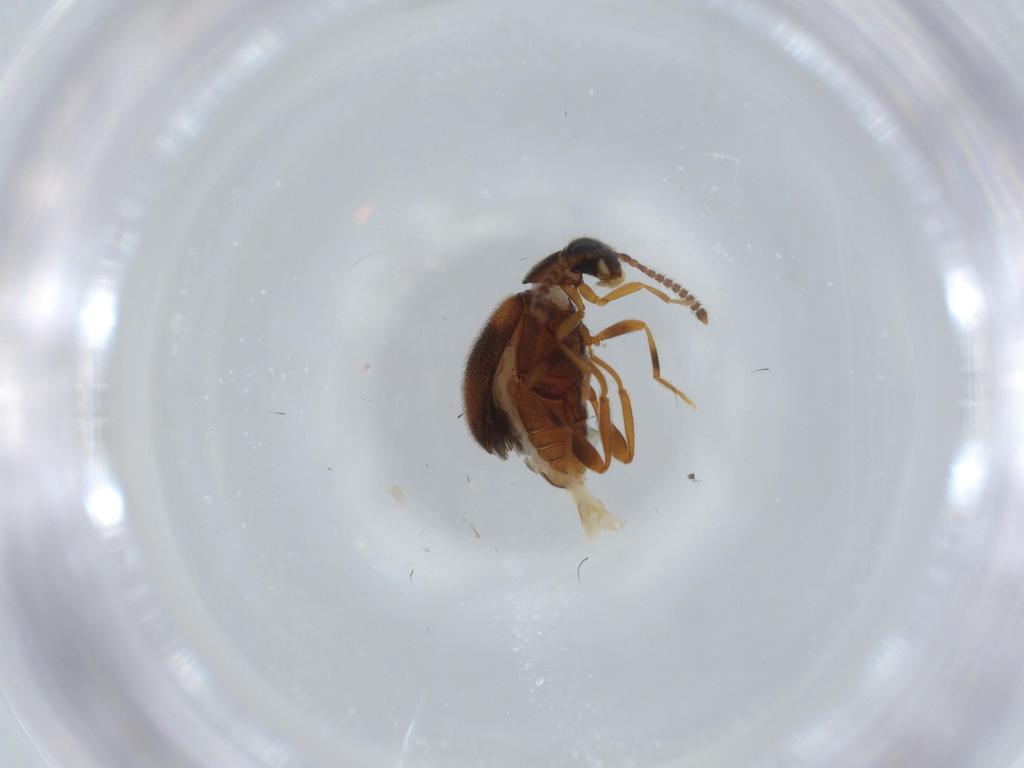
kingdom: Animalia
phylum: Arthropoda
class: Insecta
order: Coleoptera
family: Aderidae
